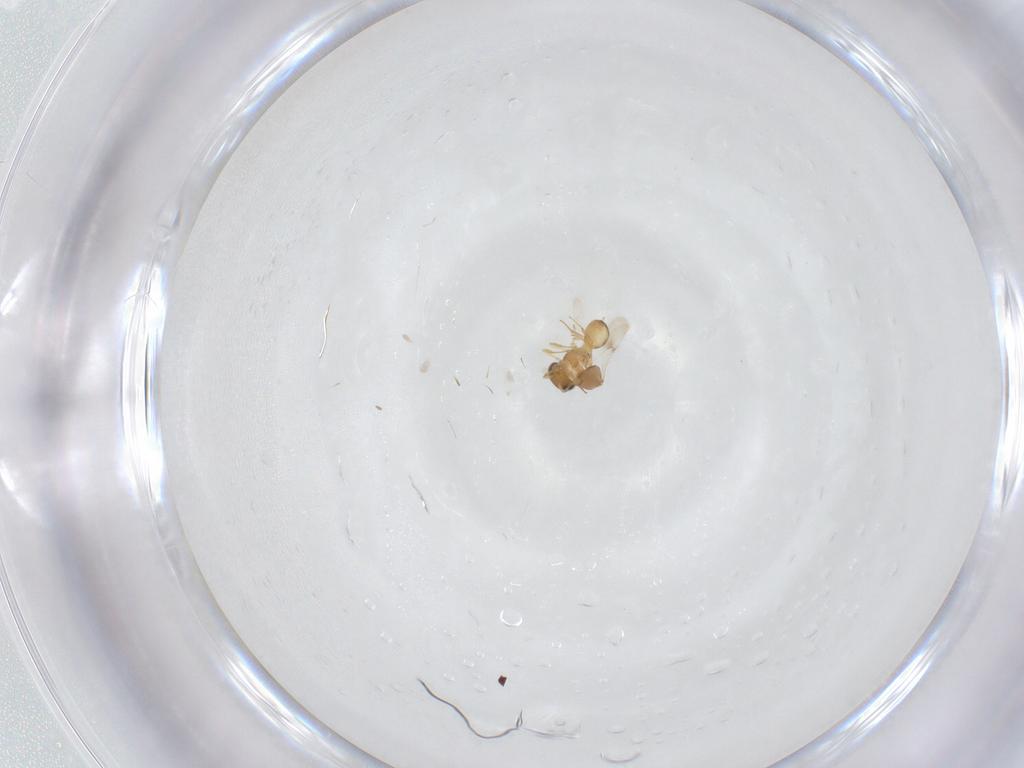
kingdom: Animalia
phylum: Arthropoda
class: Insecta
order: Hymenoptera
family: Scelionidae
